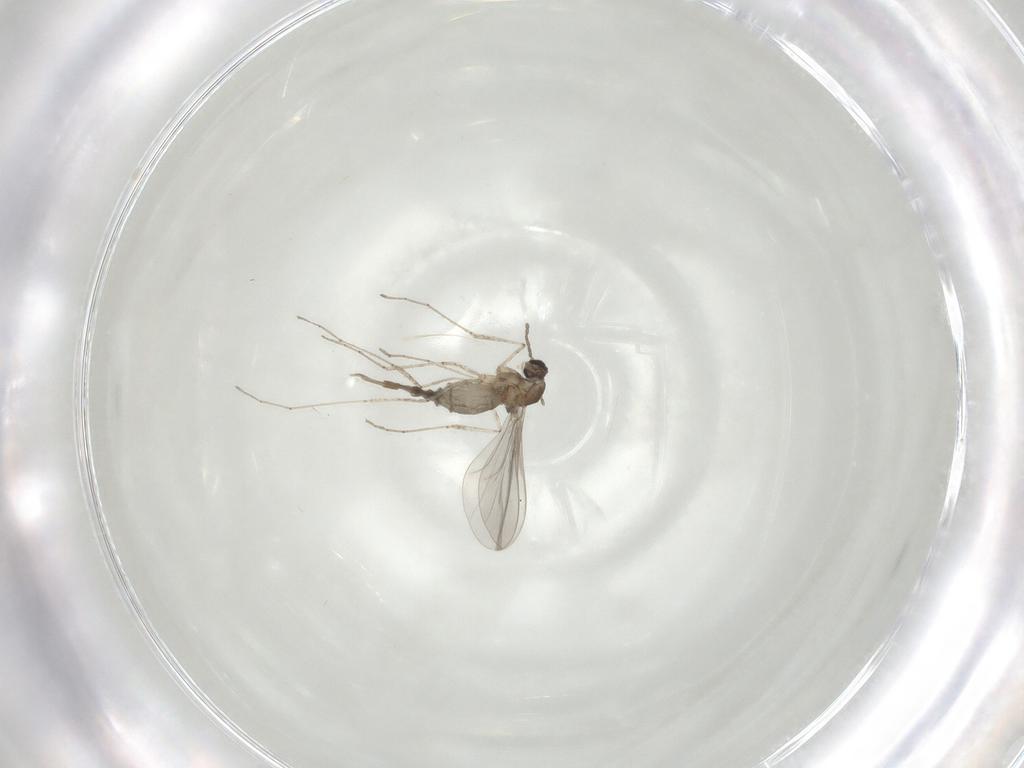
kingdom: Animalia
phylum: Arthropoda
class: Insecta
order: Diptera
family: Cecidomyiidae
